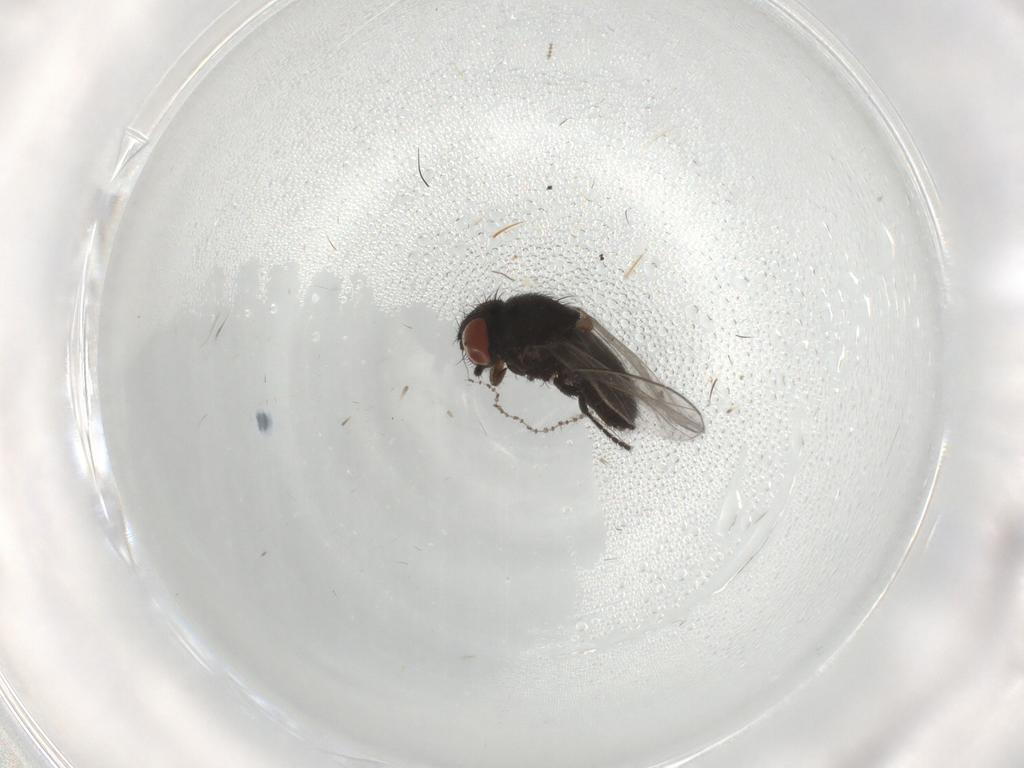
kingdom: Animalia
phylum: Arthropoda
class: Insecta
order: Diptera
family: Milichiidae
